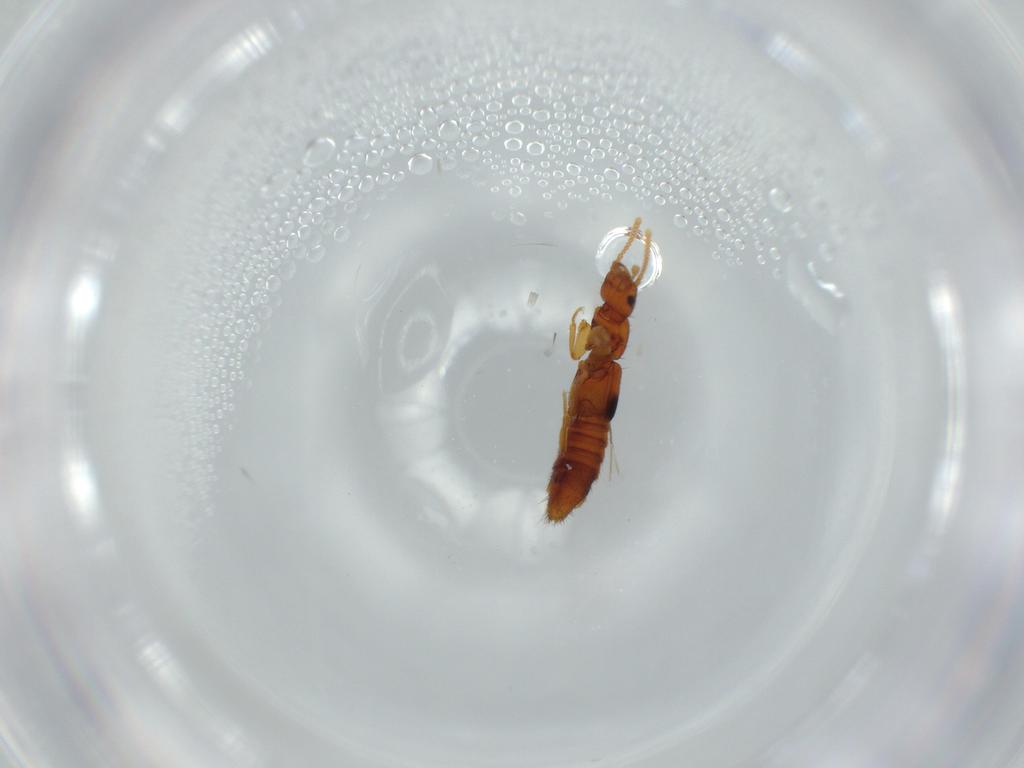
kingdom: Animalia
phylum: Arthropoda
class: Insecta
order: Coleoptera
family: Staphylinidae
